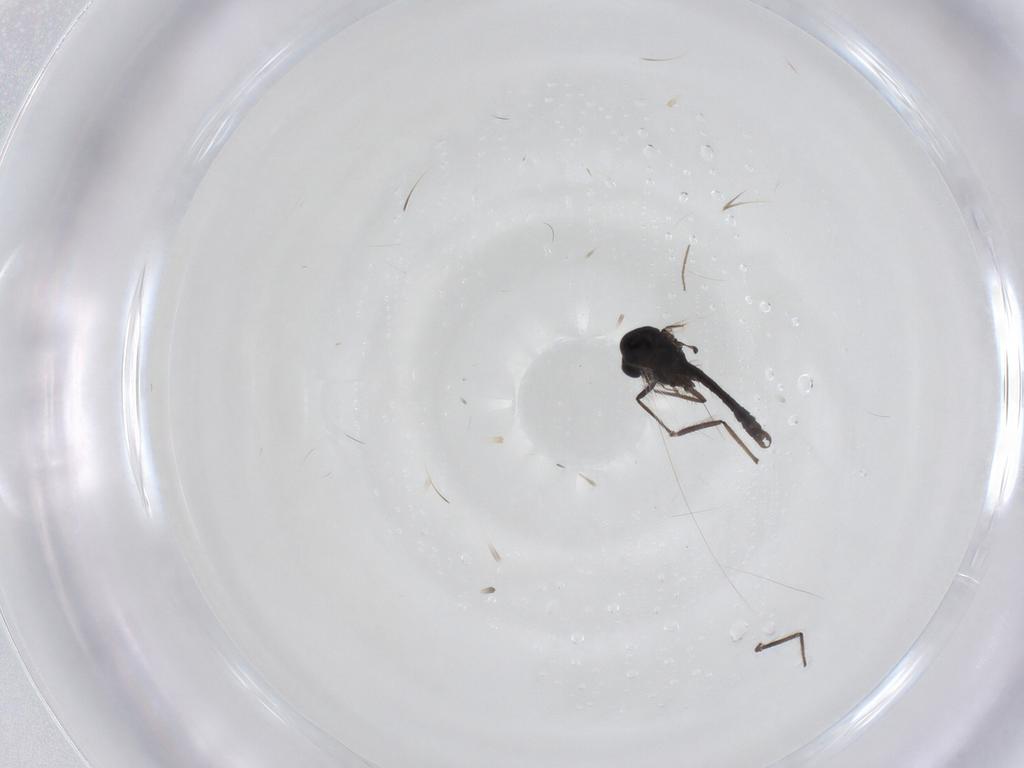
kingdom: Animalia
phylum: Arthropoda
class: Insecta
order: Diptera
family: Chironomidae
